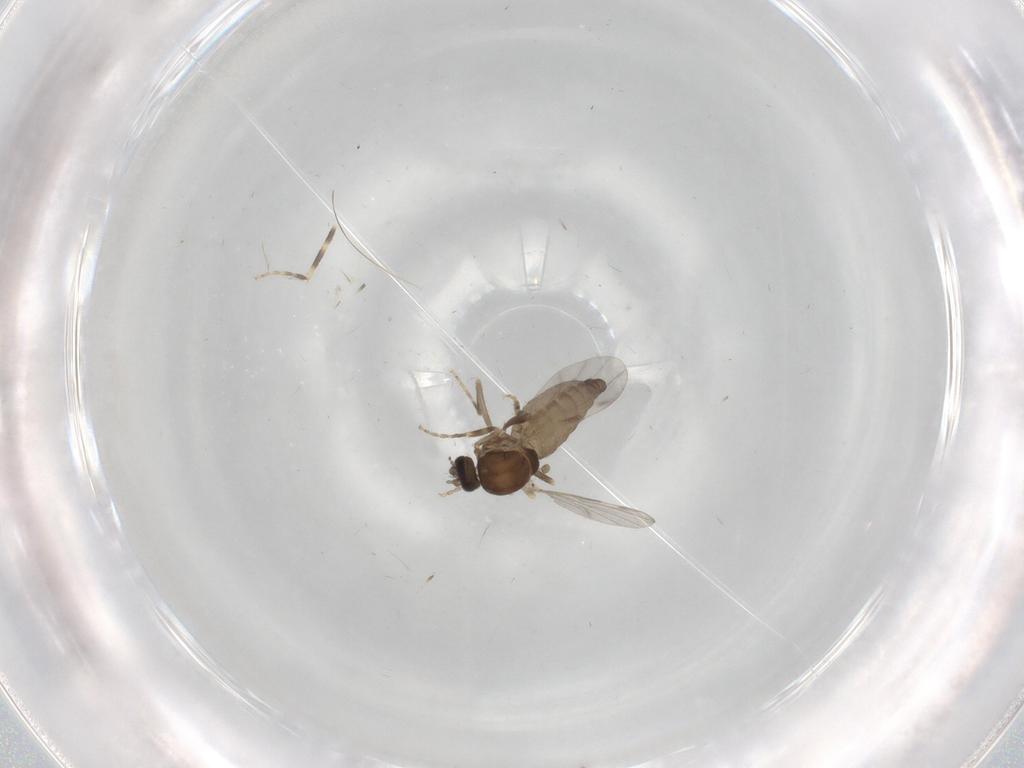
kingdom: Animalia
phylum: Arthropoda
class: Insecta
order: Diptera
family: Ceratopogonidae
